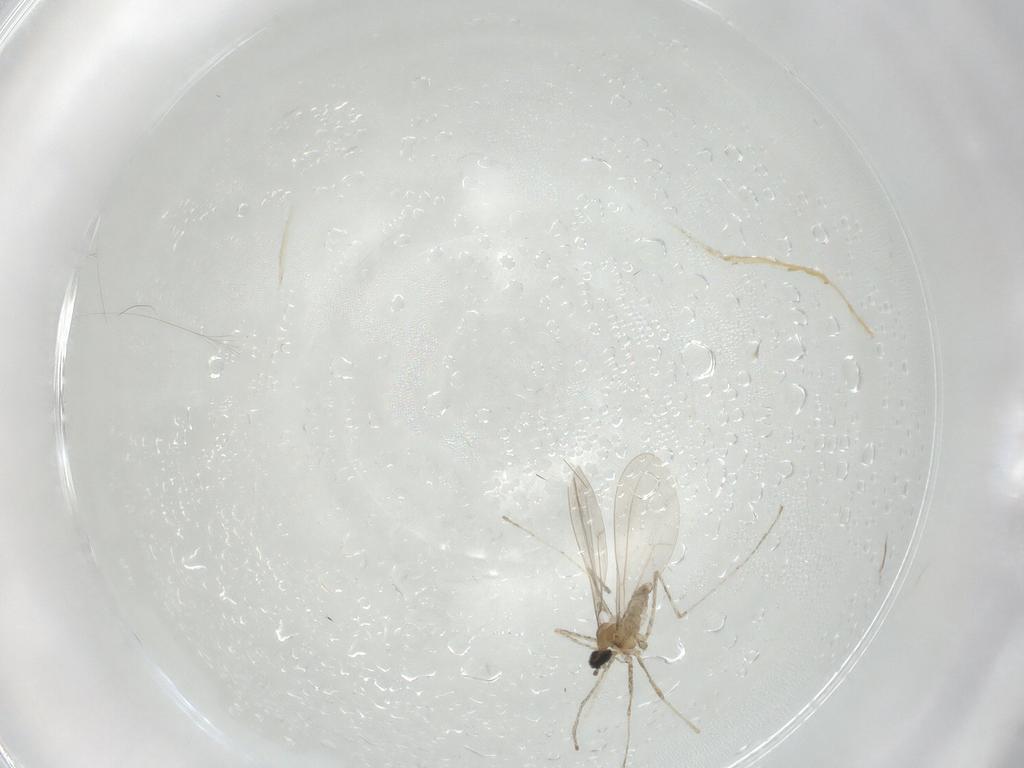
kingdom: Animalia
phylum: Arthropoda
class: Insecta
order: Diptera
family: Cecidomyiidae
